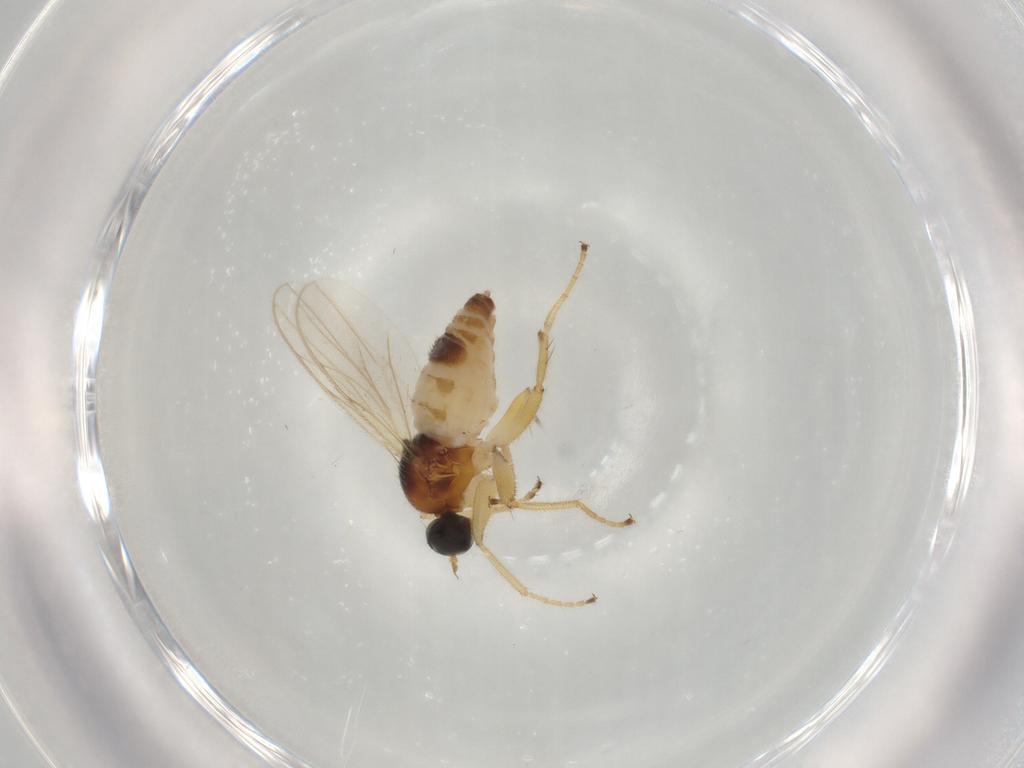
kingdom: Animalia
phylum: Arthropoda
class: Insecta
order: Diptera
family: Hybotidae
